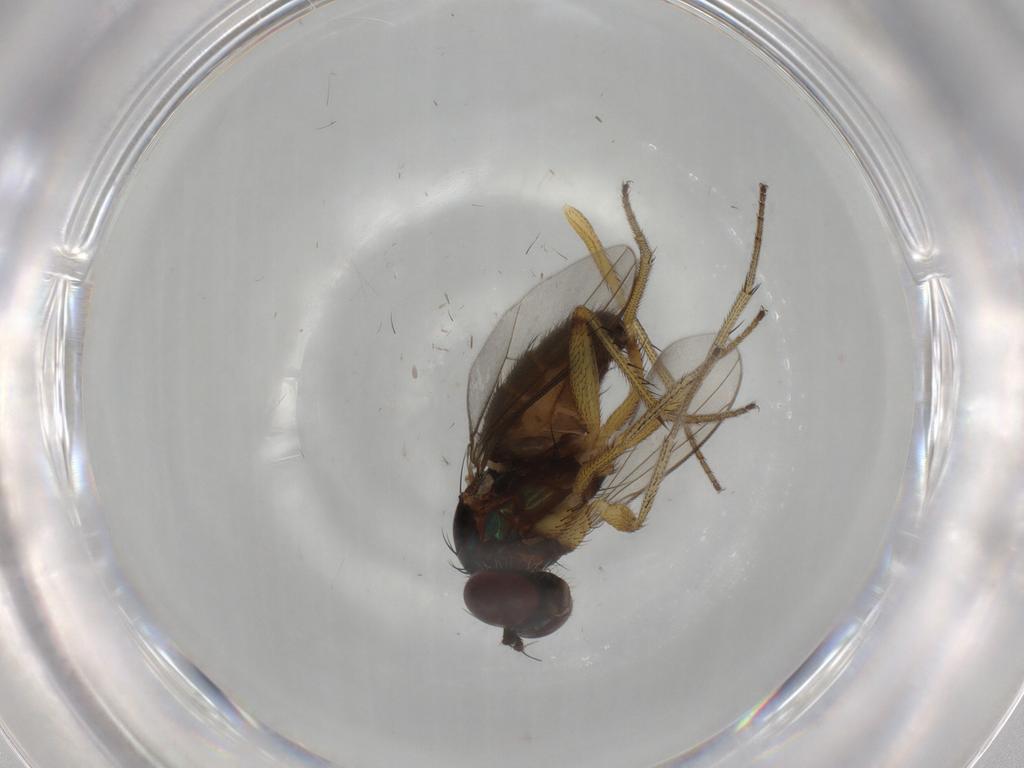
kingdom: Animalia
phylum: Arthropoda
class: Insecta
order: Diptera
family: Dolichopodidae
